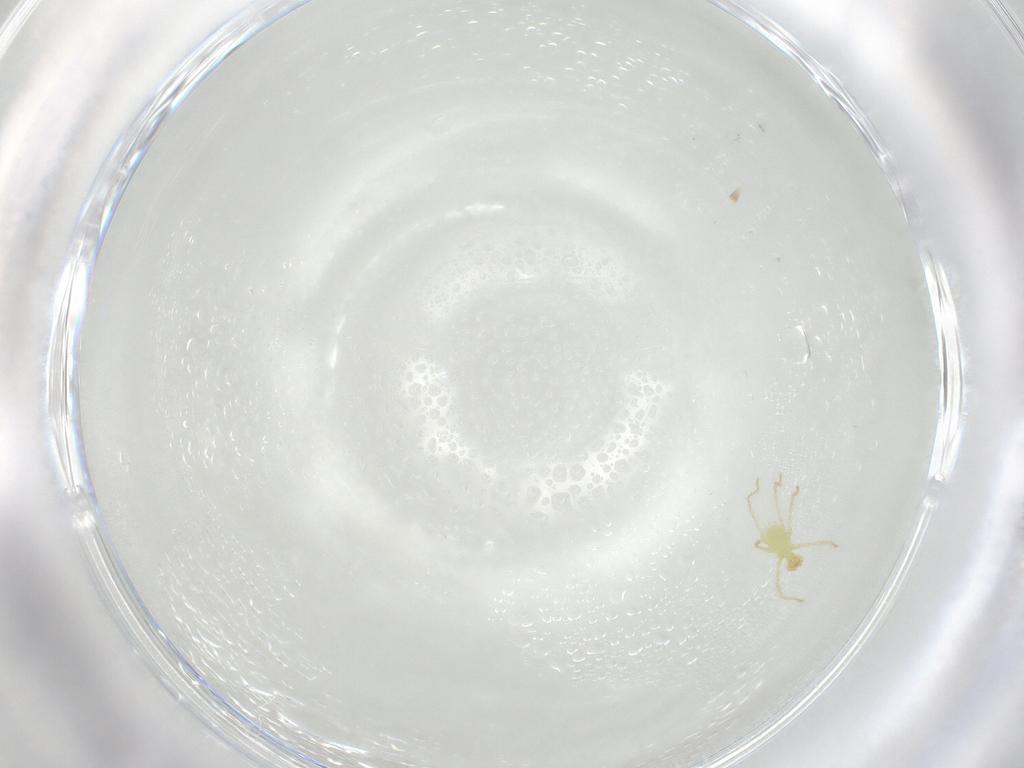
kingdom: Animalia
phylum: Arthropoda
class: Arachnida
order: Trombidiformes
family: Erythraeidae
